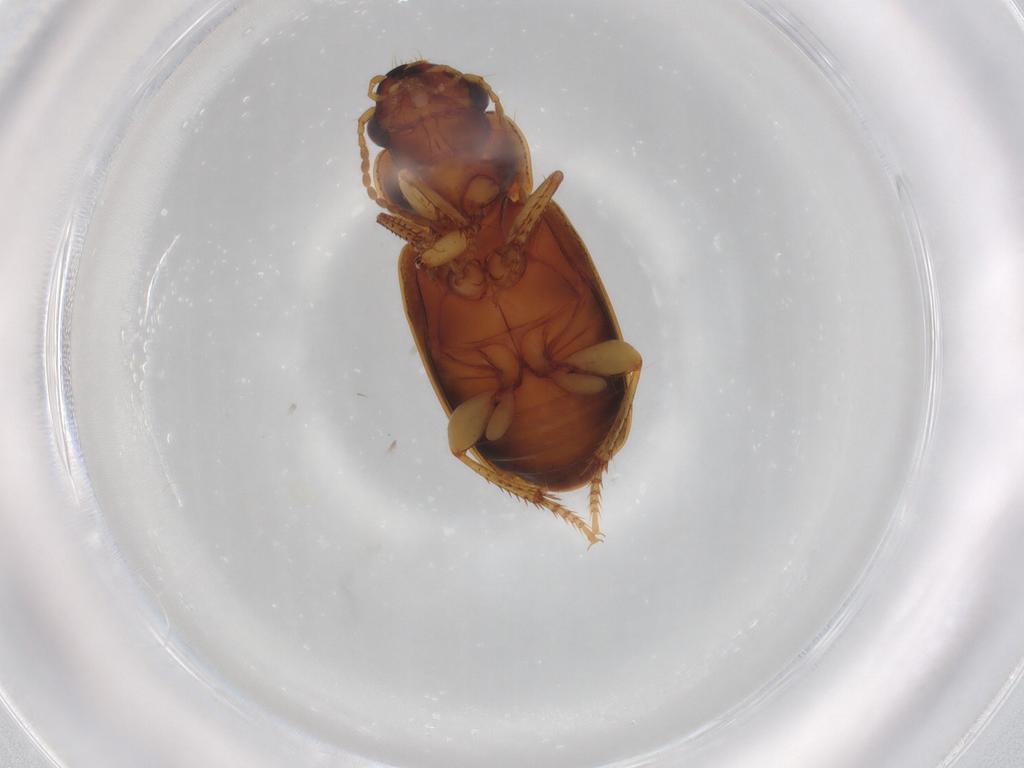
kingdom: Animalia
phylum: Arthropoda
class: Insecta
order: Coleoptera
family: Carabidae
